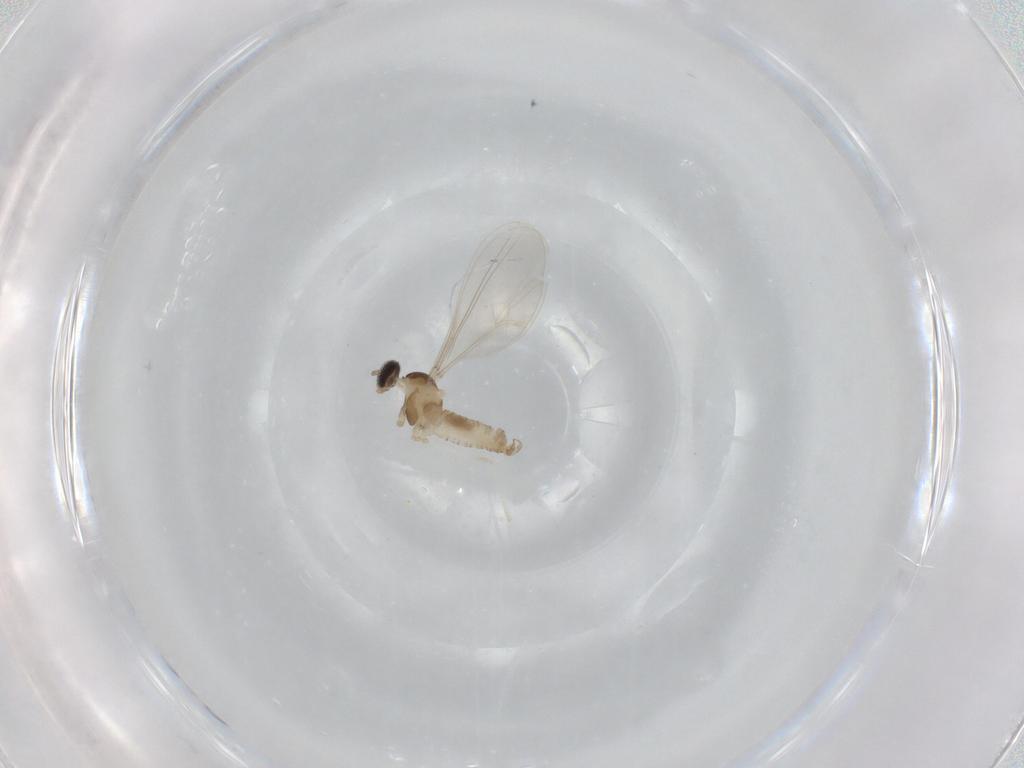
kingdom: Animalia
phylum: Arthropoda
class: Insecta
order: Diptera
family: Cecidomyiidae
